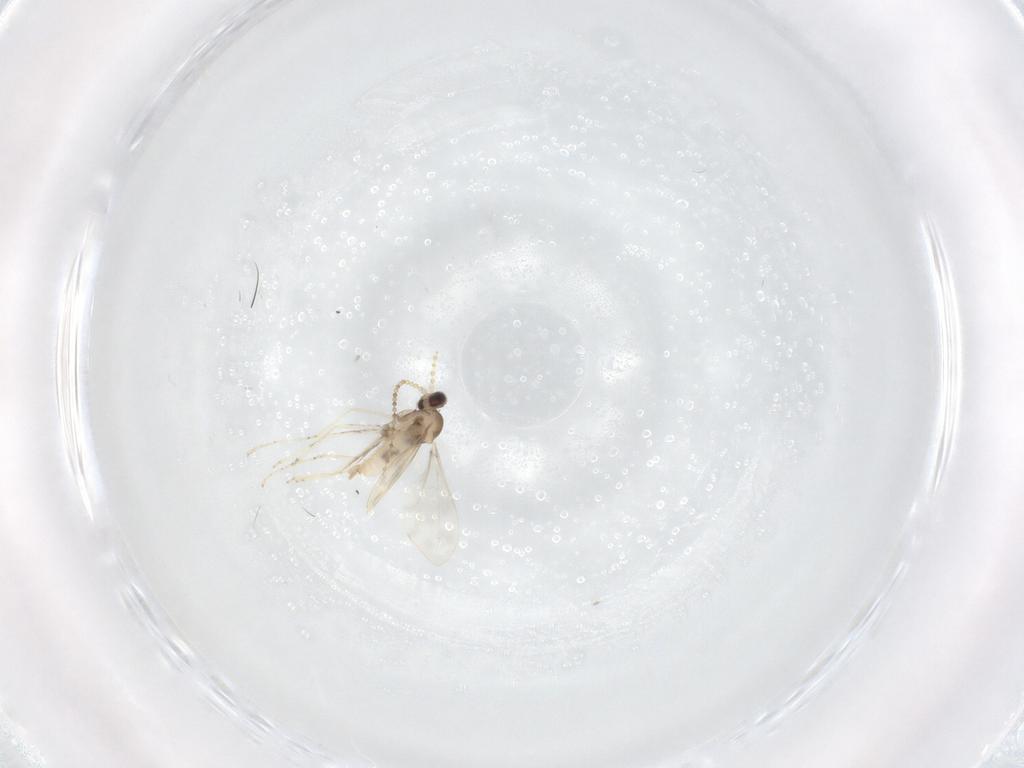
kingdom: Animalia
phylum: Arthropoda
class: Insecta
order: Diptera
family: Cecidomyiidae
